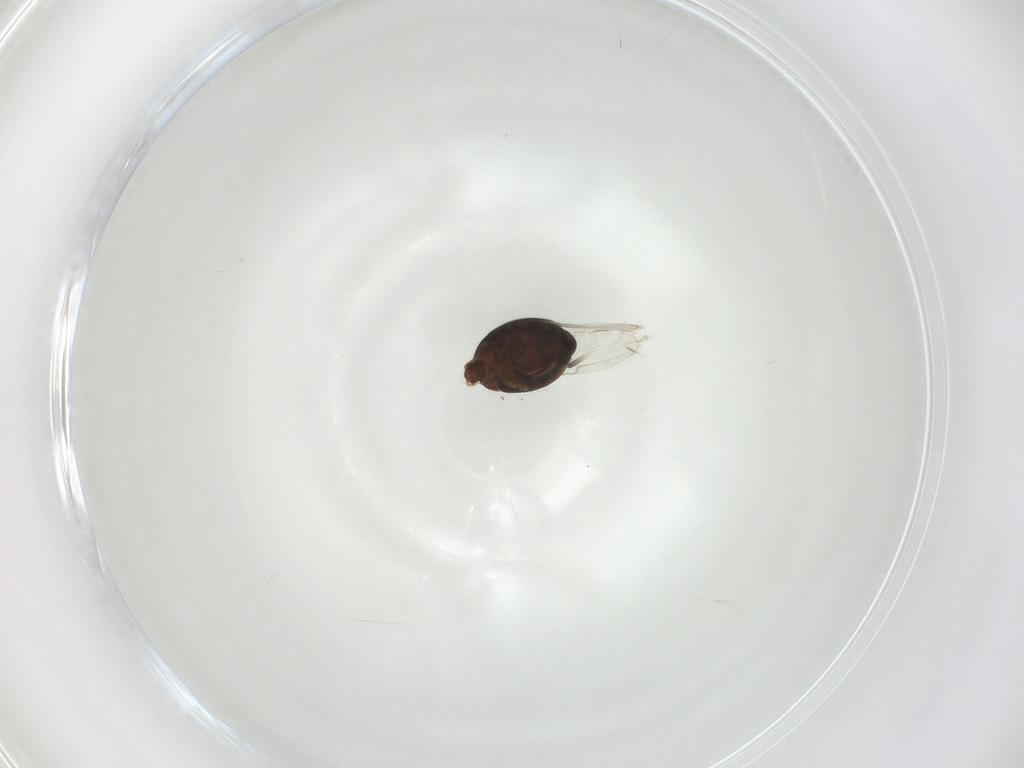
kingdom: Animalia
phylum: Arthropoda
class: Insecta
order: Coleoptera
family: Corylophidae
